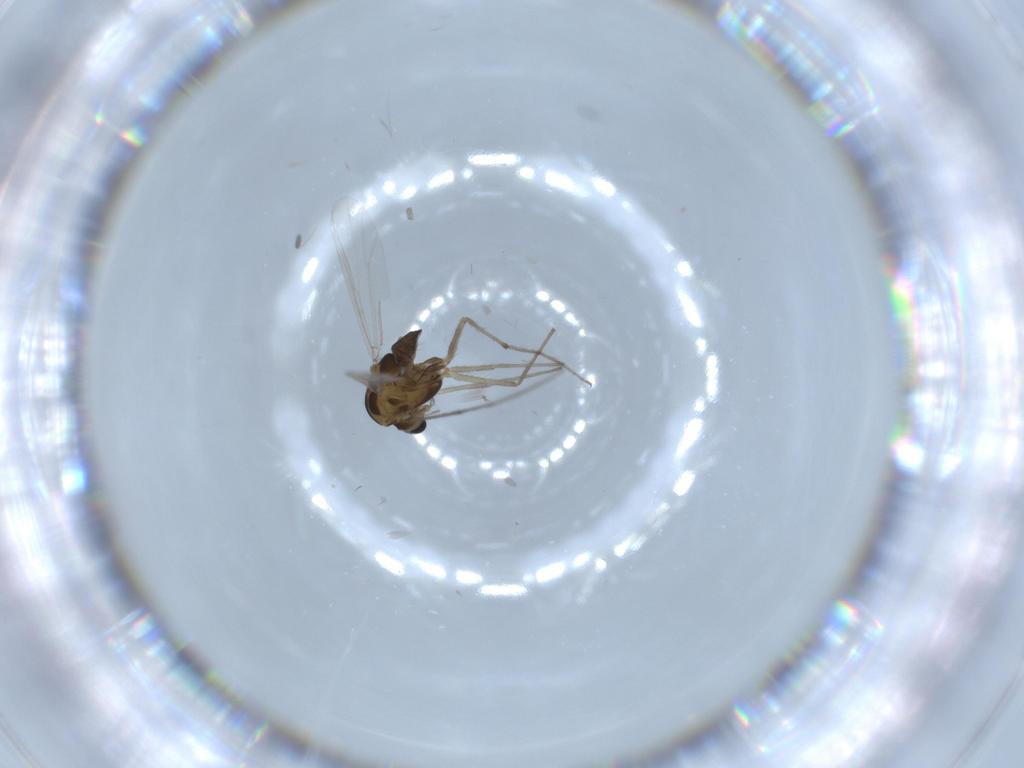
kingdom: Animalia
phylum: Arthropoda
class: Insecta
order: Diptera
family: Chironomidae
